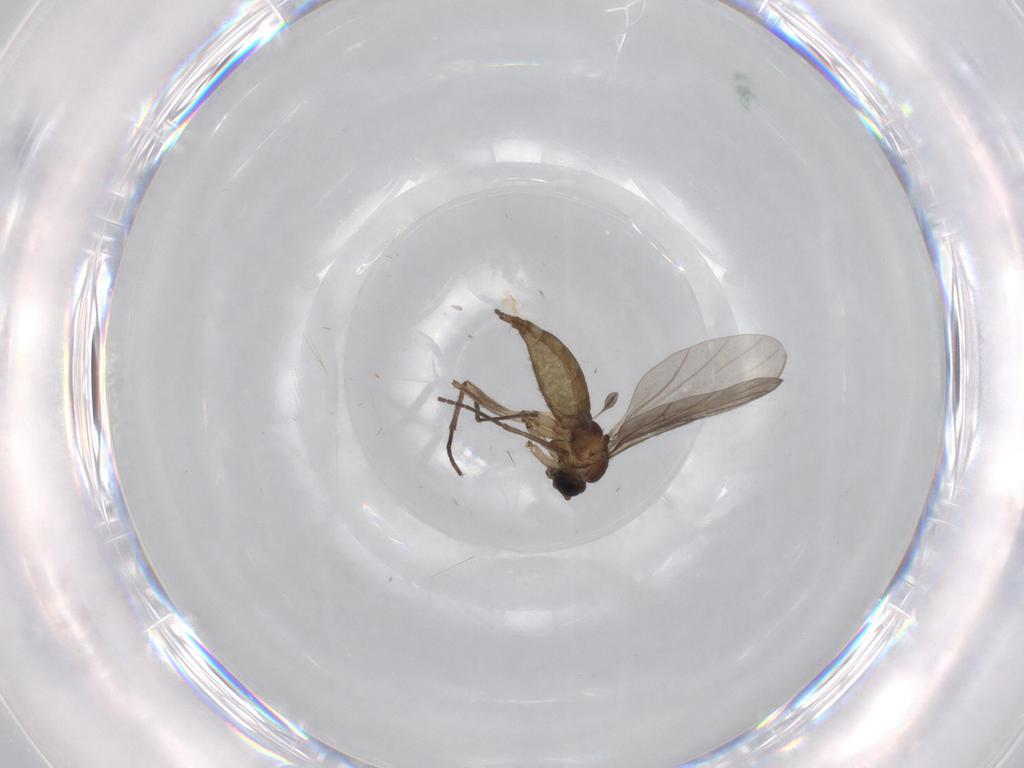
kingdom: Animalia
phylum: Arthropoda
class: Insecta
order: Diptera
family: Sciaridae
